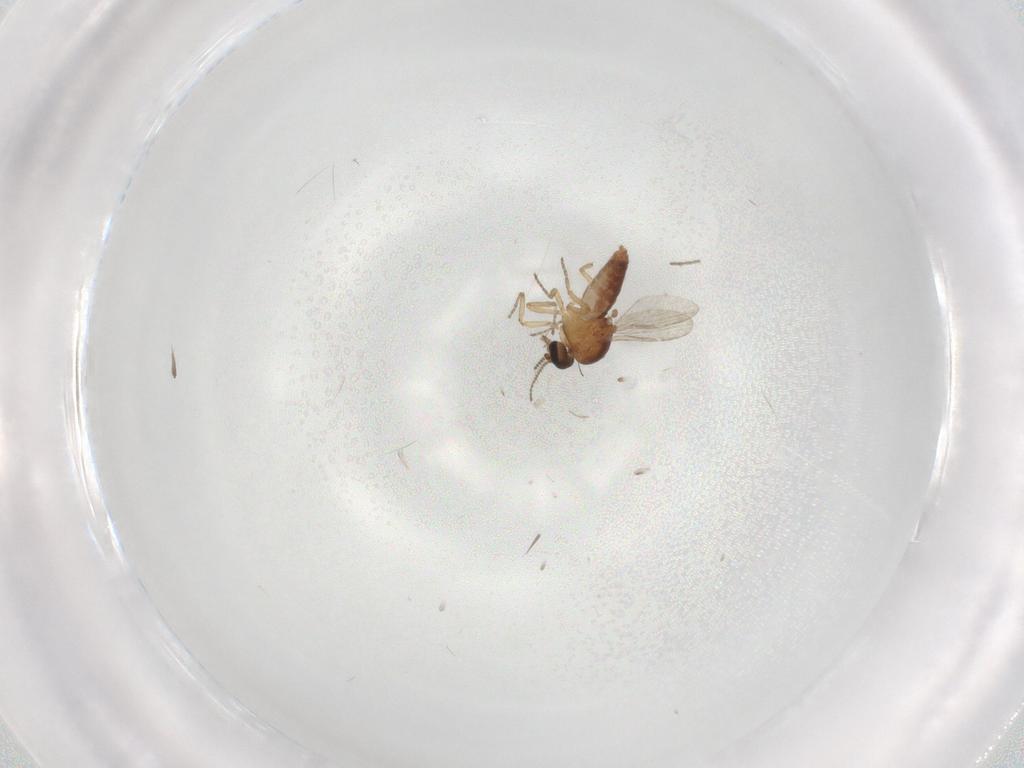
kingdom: Animalia
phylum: Arthropoda
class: Insecta
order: Diptera
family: Ceratopogonidae
